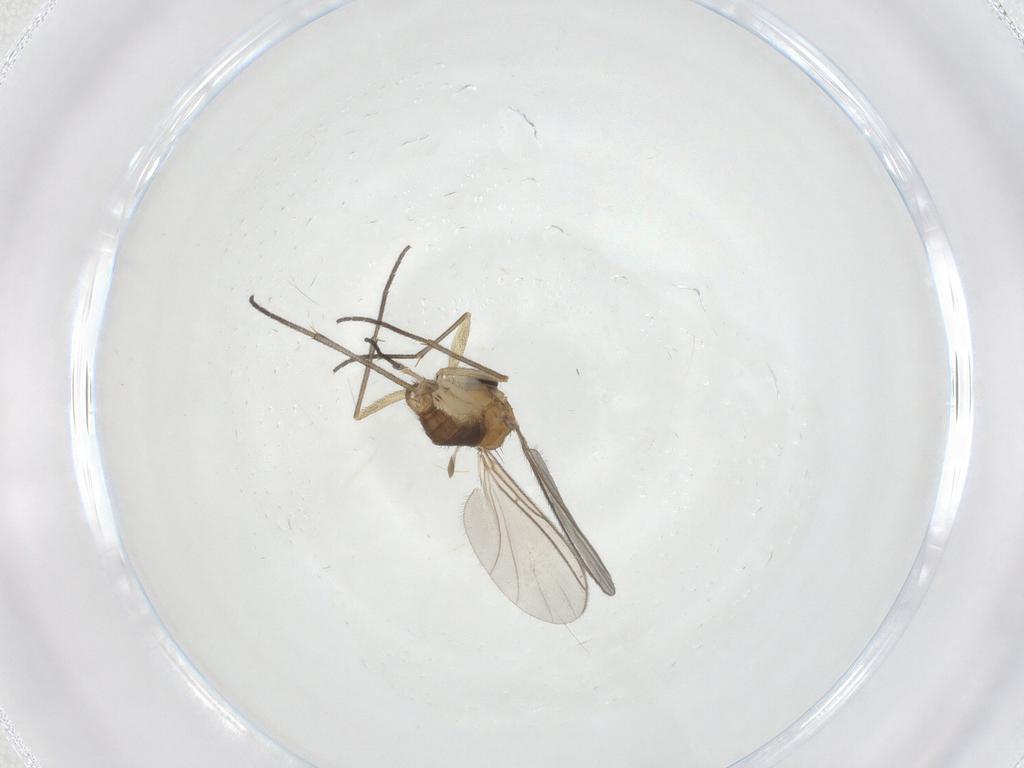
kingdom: Animalia
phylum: Arthropoda
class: Insecta
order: Diptera
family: Sciaridae
